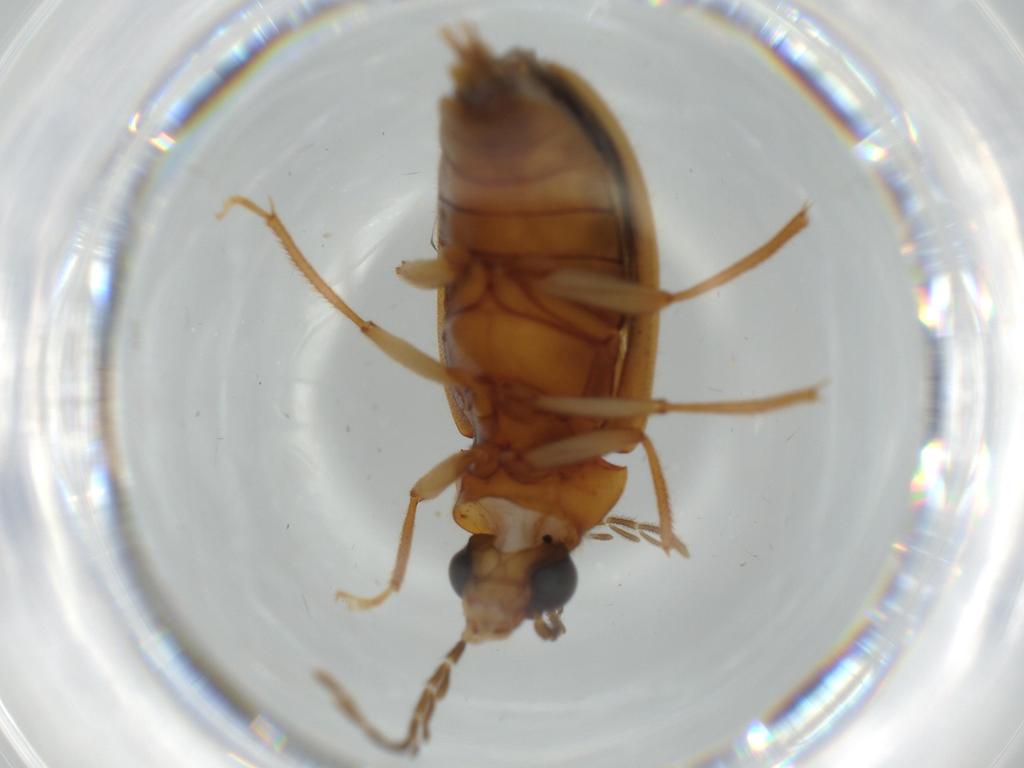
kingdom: Animalia
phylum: Arthropoda
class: Insecta
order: Coleoptera
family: Ptilodactylidae
